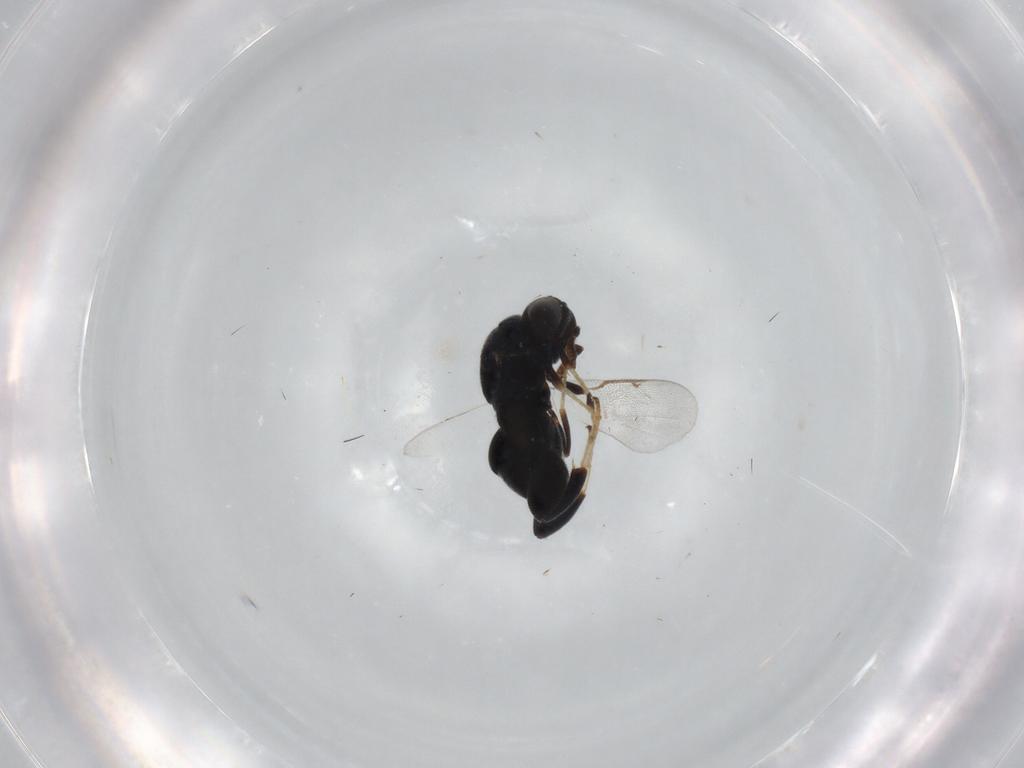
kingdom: Animalia
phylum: Arthropoda
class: Insecta
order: Hymenoptera
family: Torymidae
